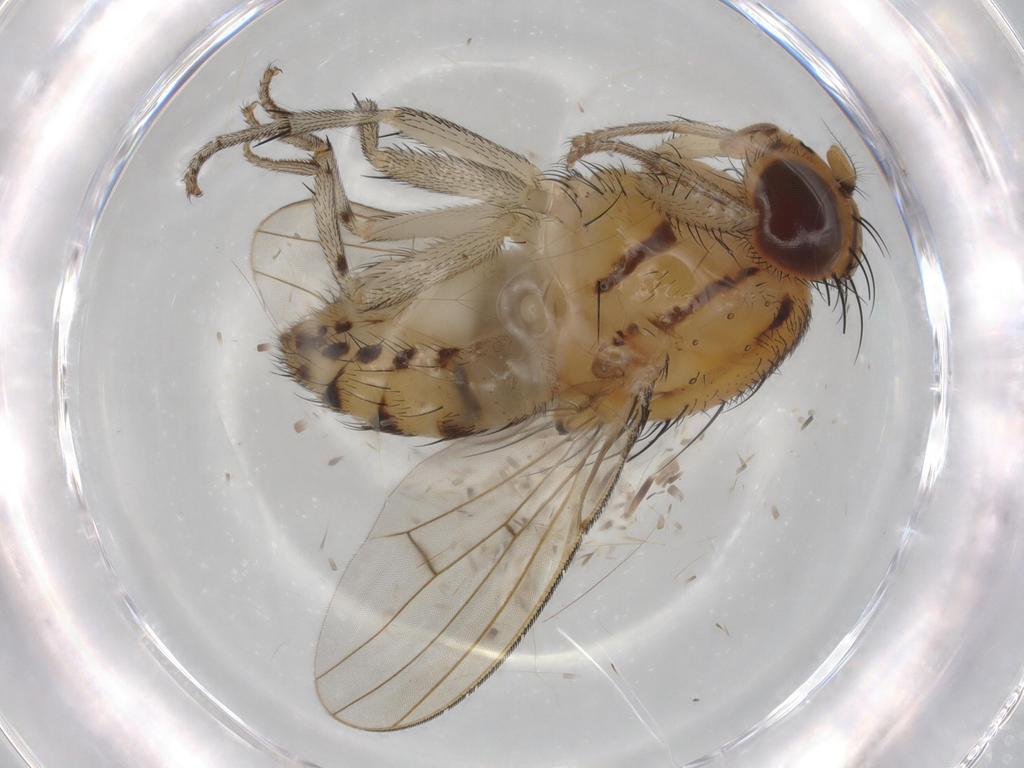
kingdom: Animalia
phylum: Arthropoda
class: Insecta
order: Diptera
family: Lauxaniidae
